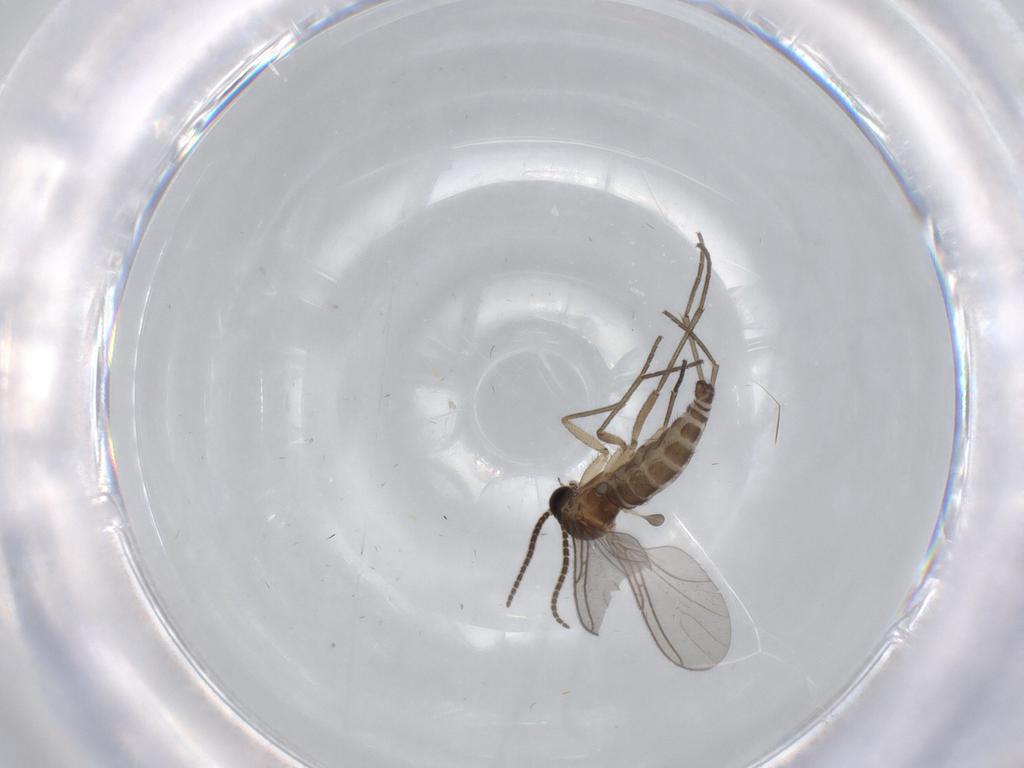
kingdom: Animalia
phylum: Arthropoda
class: Insecta
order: Diptera
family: Sciaridae
